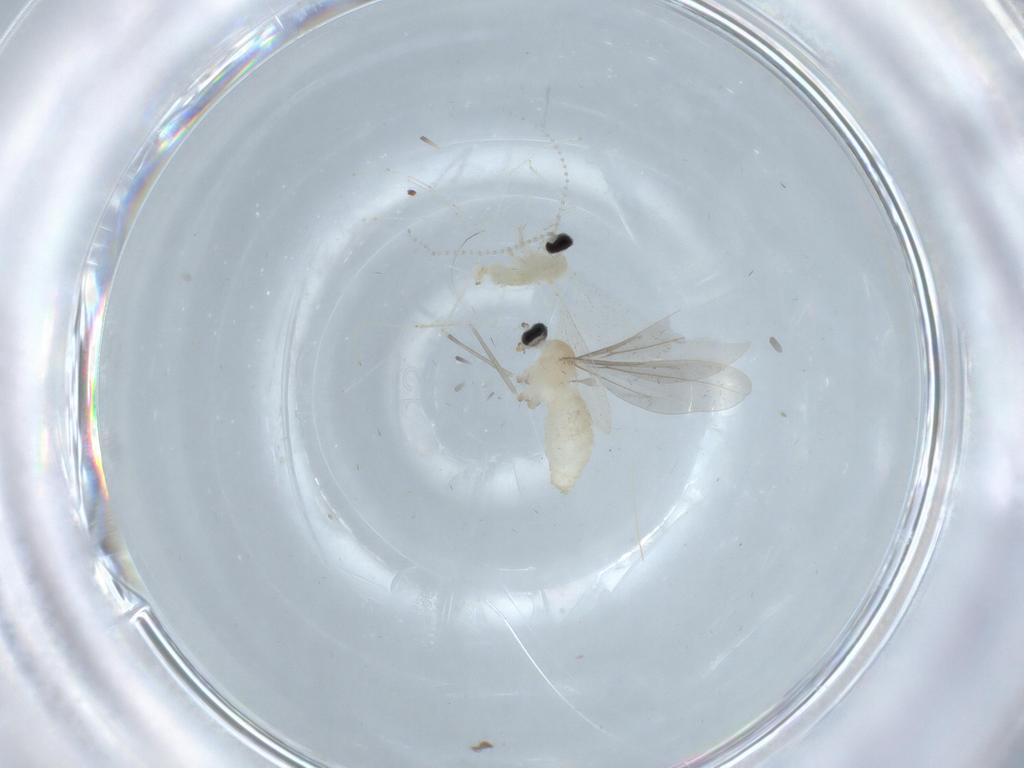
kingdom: Animalia
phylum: Arthropoda
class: Insecta
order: Diptera
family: Cecidomyiidae
